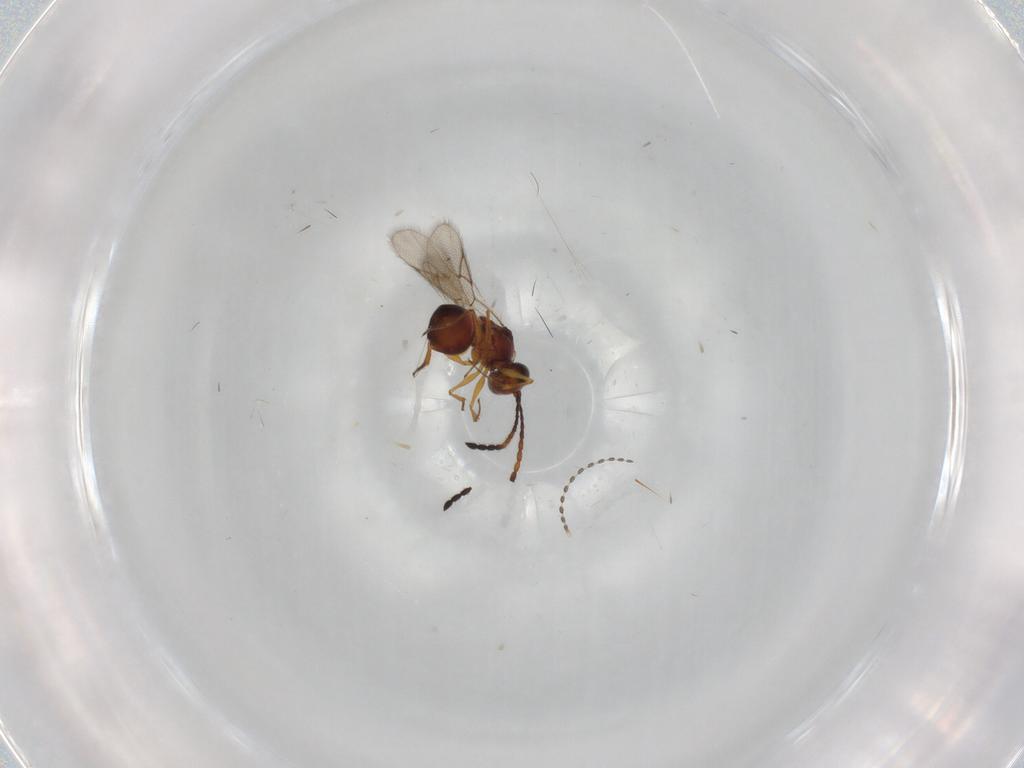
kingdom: Animalia
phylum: Arthropoda
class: Insecta
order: Hymenoptera
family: Figitidae
